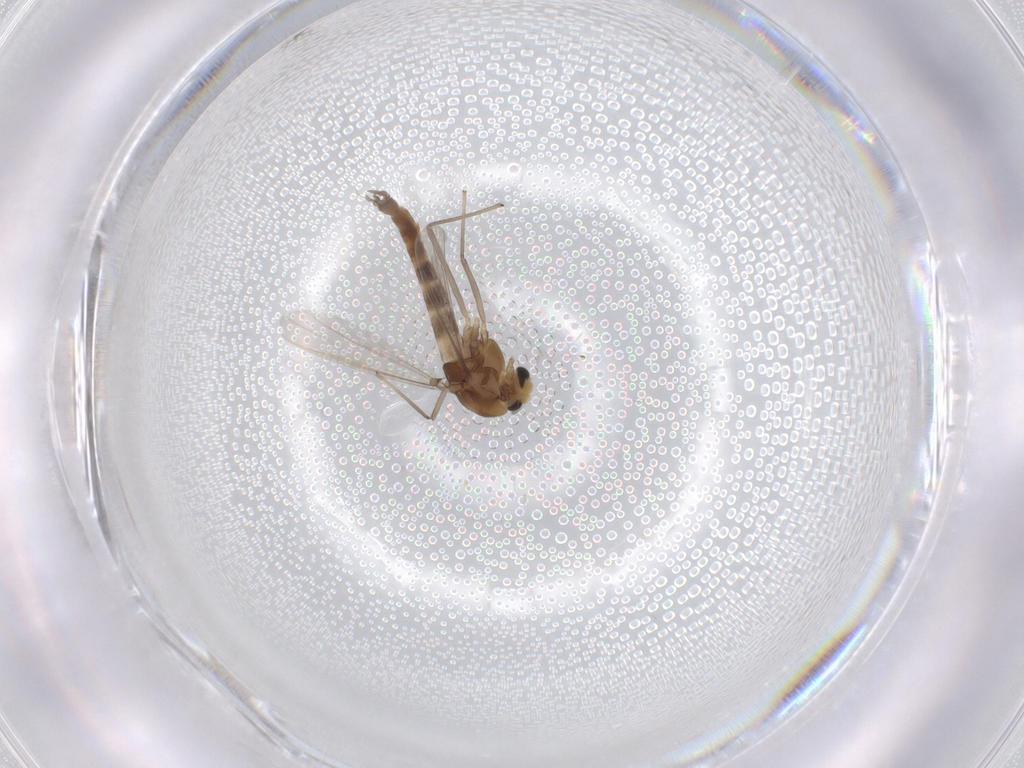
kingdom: Animalia
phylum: Arthropoda
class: Insecta
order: Diptera
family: Chironomidae
